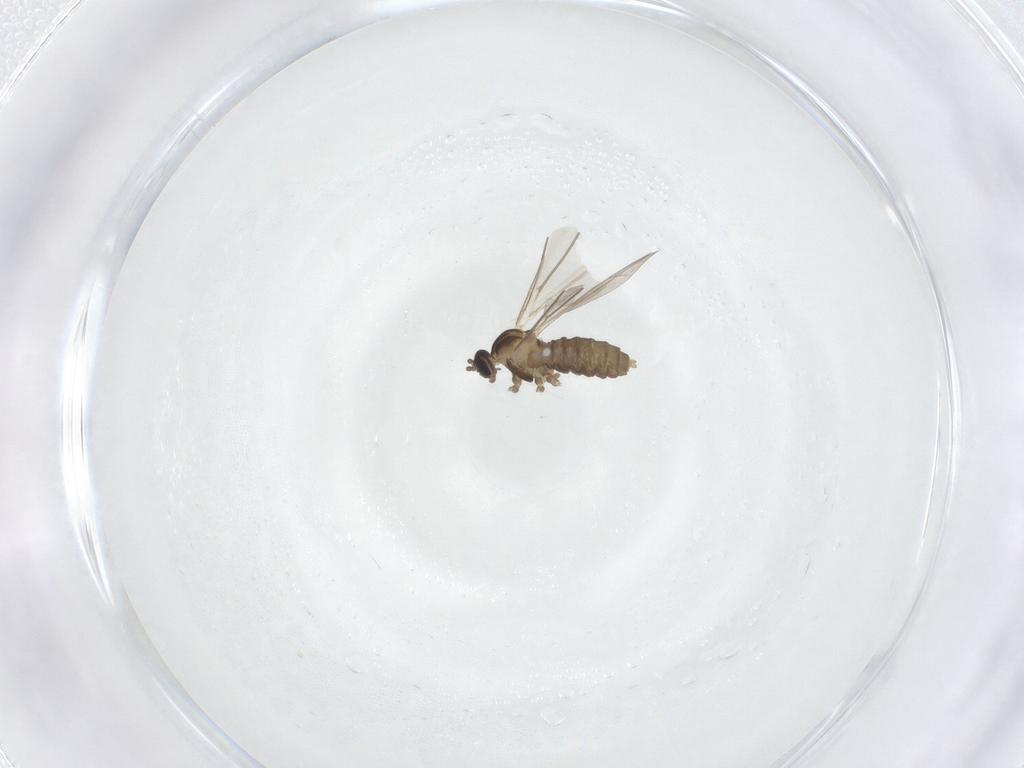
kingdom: Animalia
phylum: Arthropoda
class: Insecta
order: Diptera
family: Cecidomyiidae
